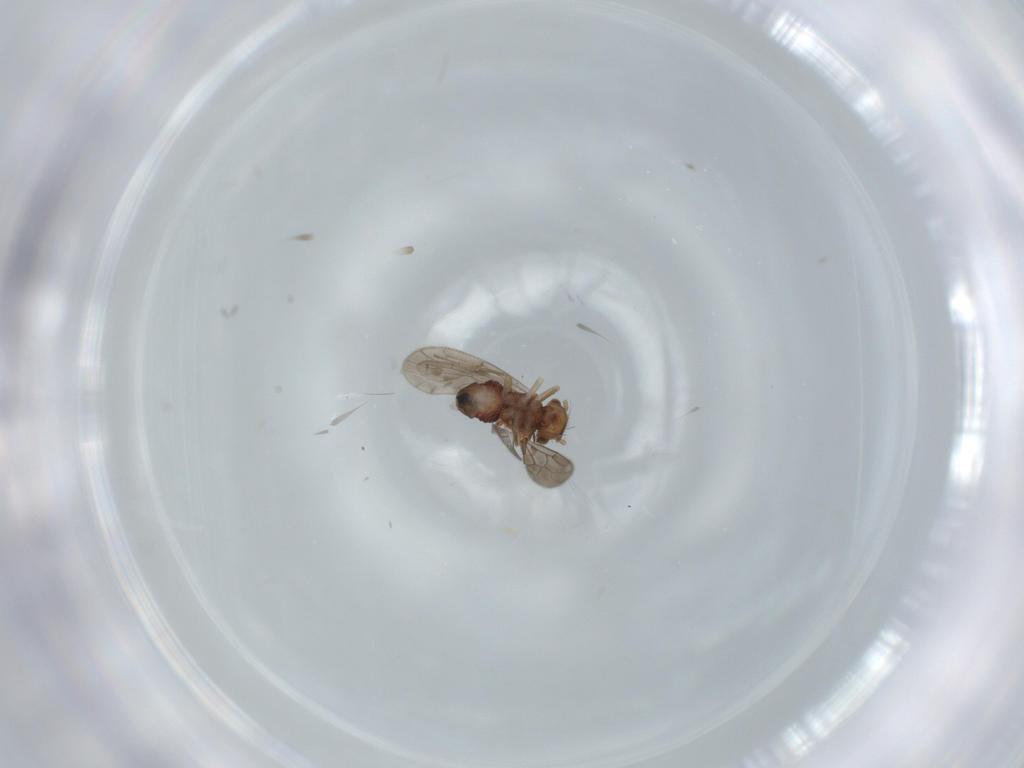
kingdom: Animalia
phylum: Arthropoda
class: Insecta
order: Psocodea
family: Ectopsocidae
